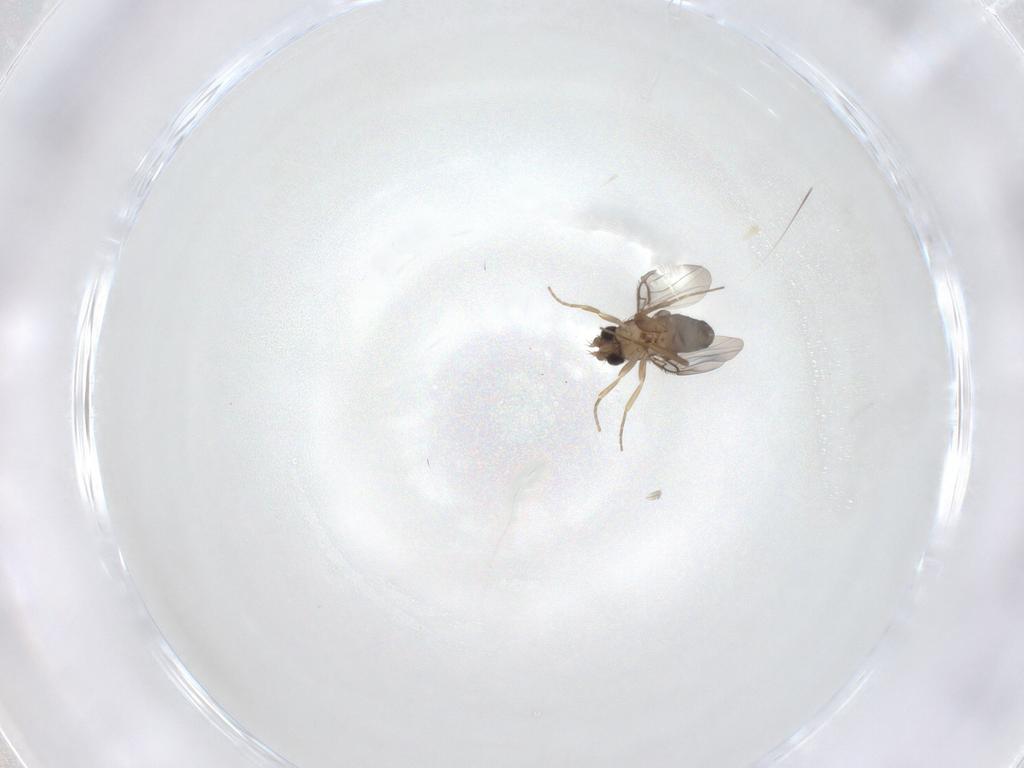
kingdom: Animalia
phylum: Arthropoda
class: Insecta
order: Diptera
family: Phoridae
